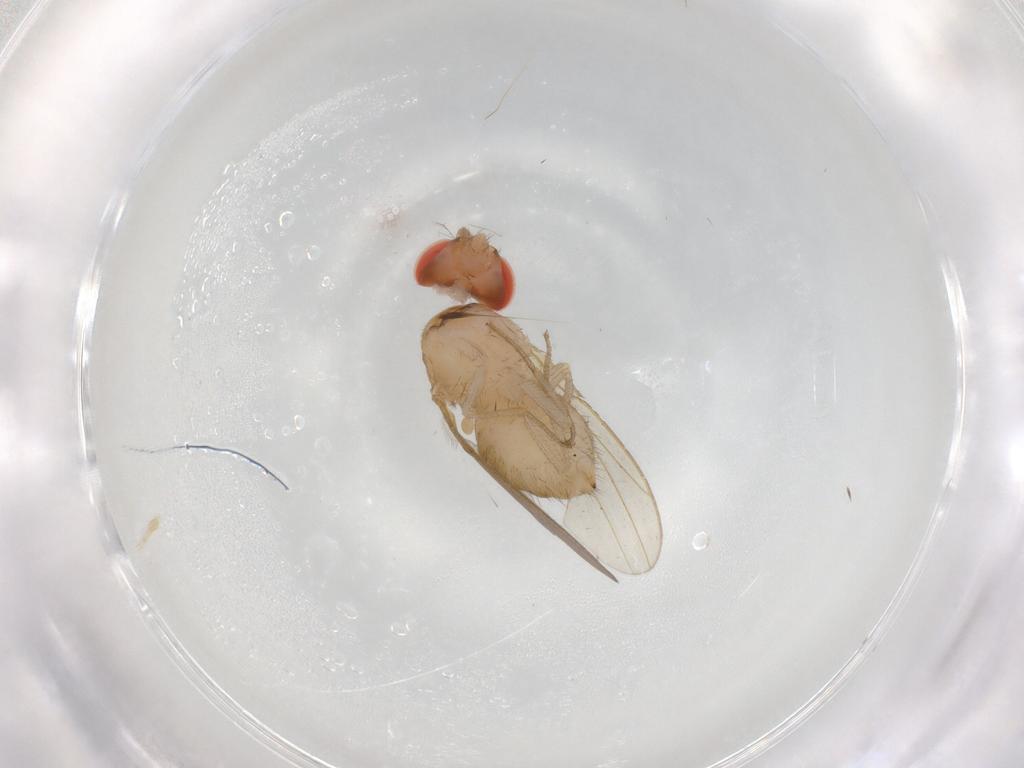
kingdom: Animalia
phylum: Arthropoda
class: Insecta
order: Diptera
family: Drosophilidae
